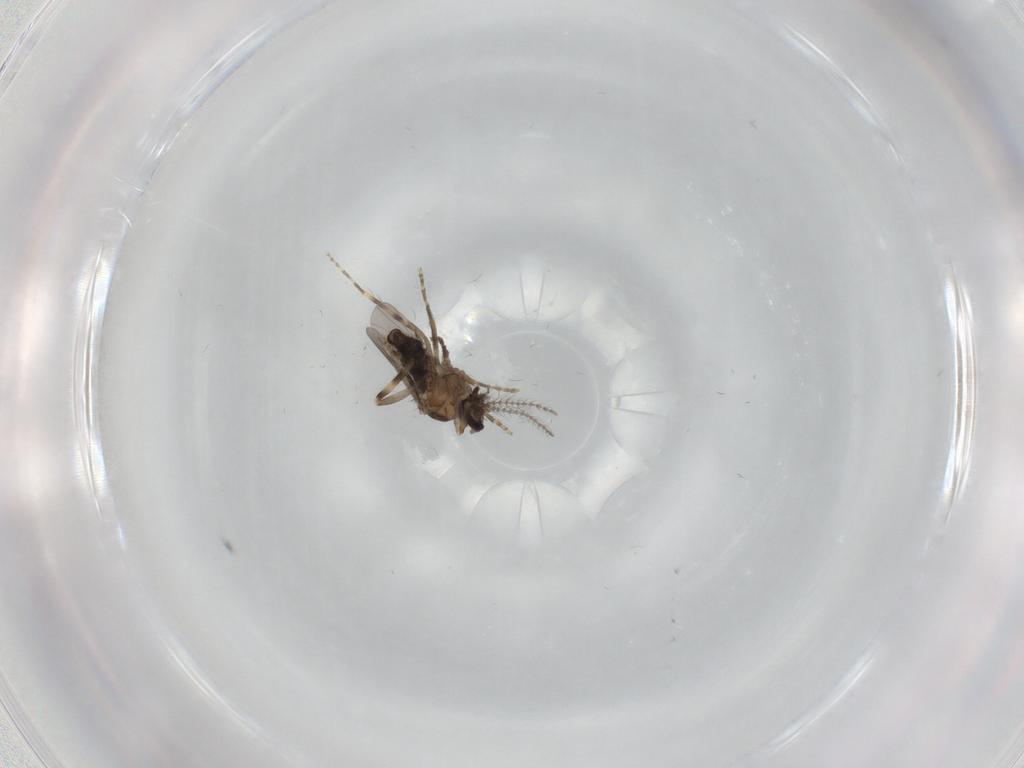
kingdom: Animalia
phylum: Arthropoda
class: Insecta
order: Diptera
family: Ceratopogonidae
